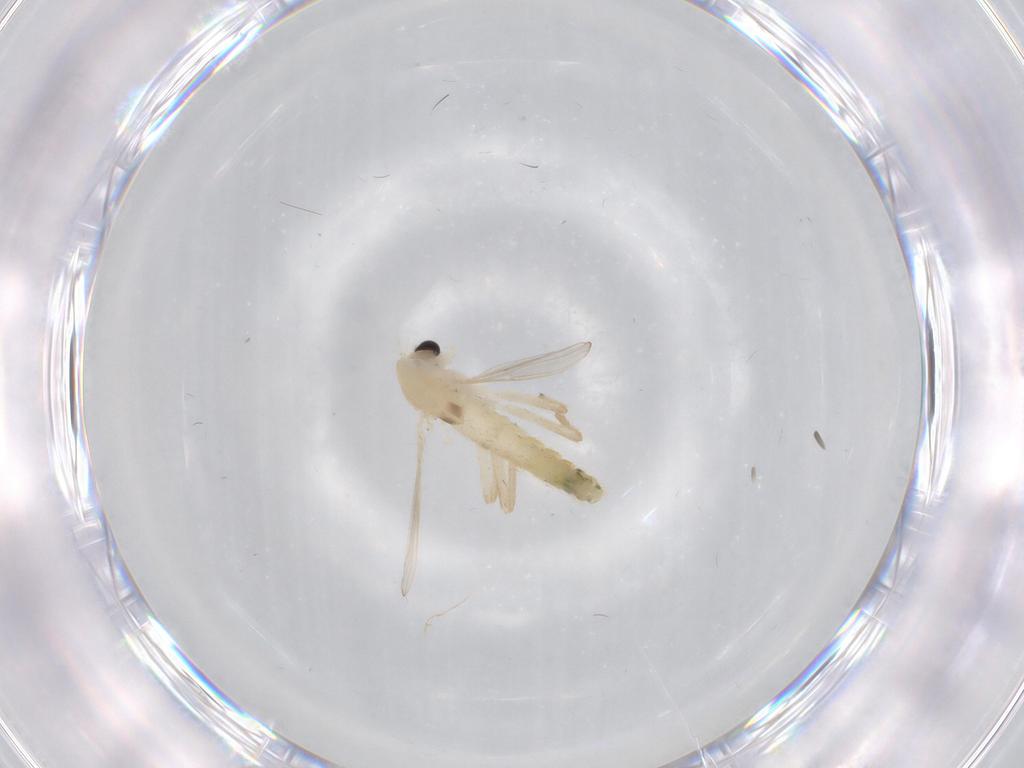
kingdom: Animalia
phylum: Arthropoda
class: Insecta
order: Diptera
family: Chironomidae
